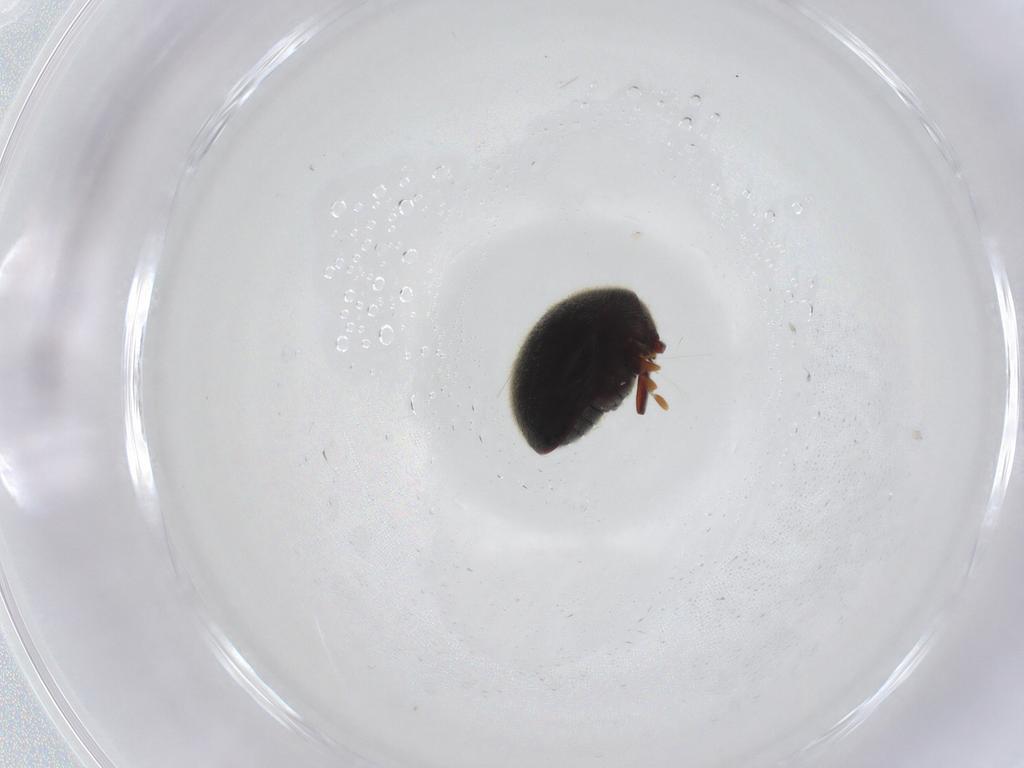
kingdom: Animalia
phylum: Arthropoda
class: Insecta
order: Coleoptera
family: Ptinidae
